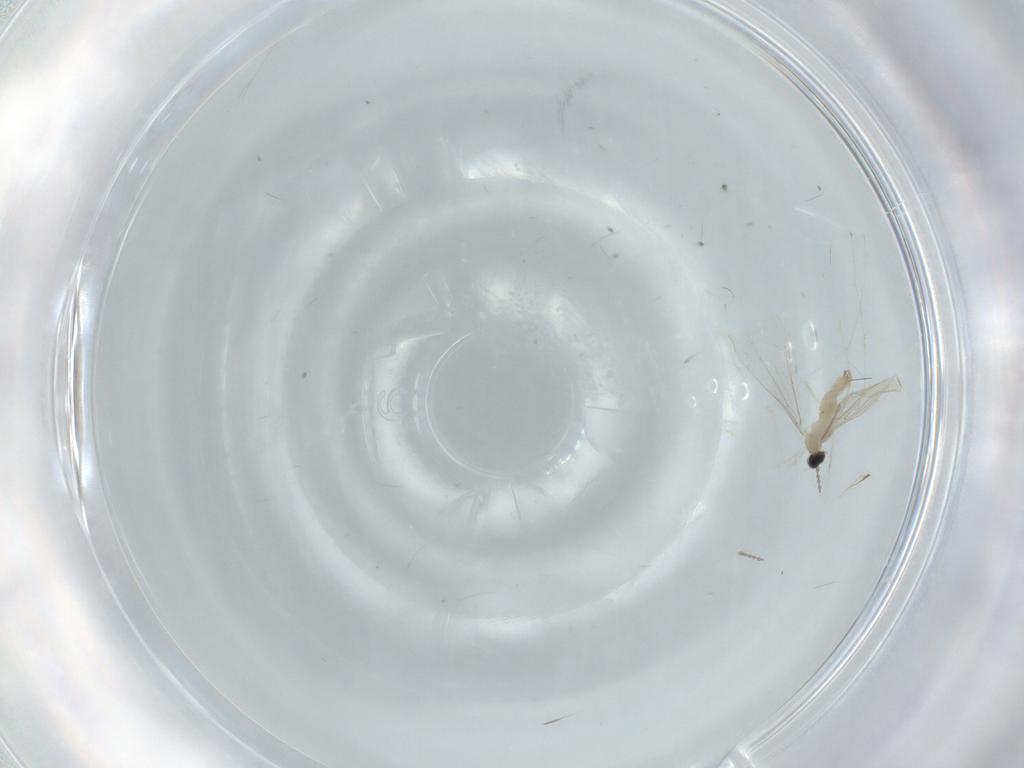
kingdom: Animalia
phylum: Arthropoda
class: Insecta
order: Diptera
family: Cecidomyiidae
